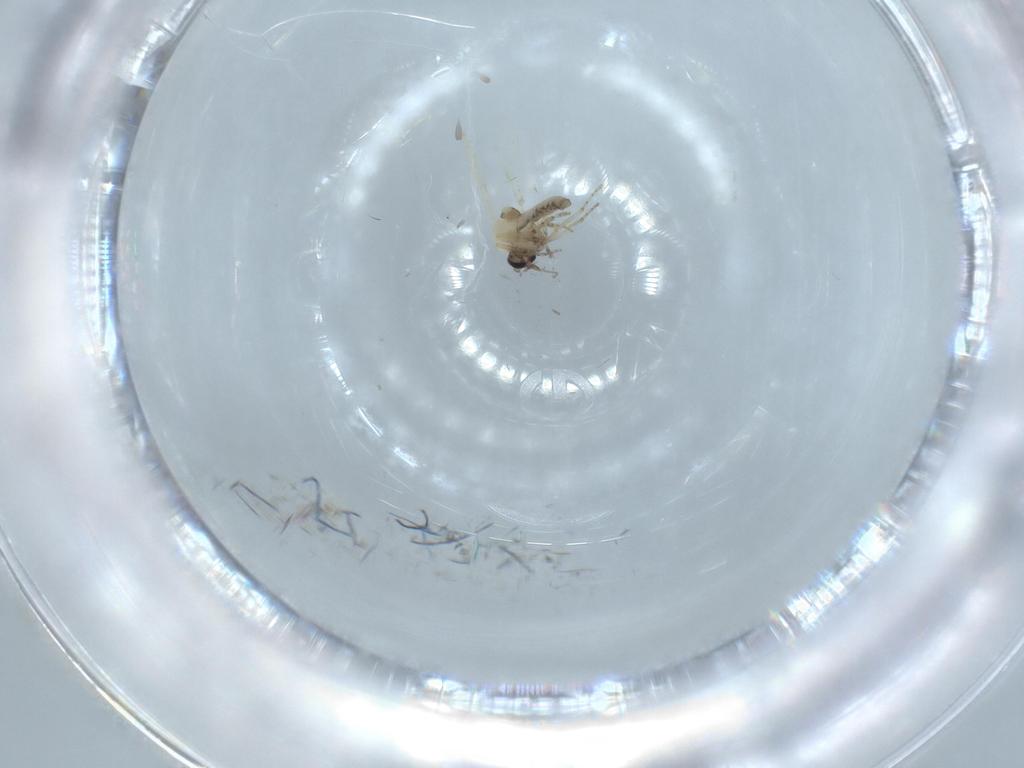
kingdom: Animalia
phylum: Arthropoda
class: Insecta
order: Diptera
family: Ceratopogonidae
